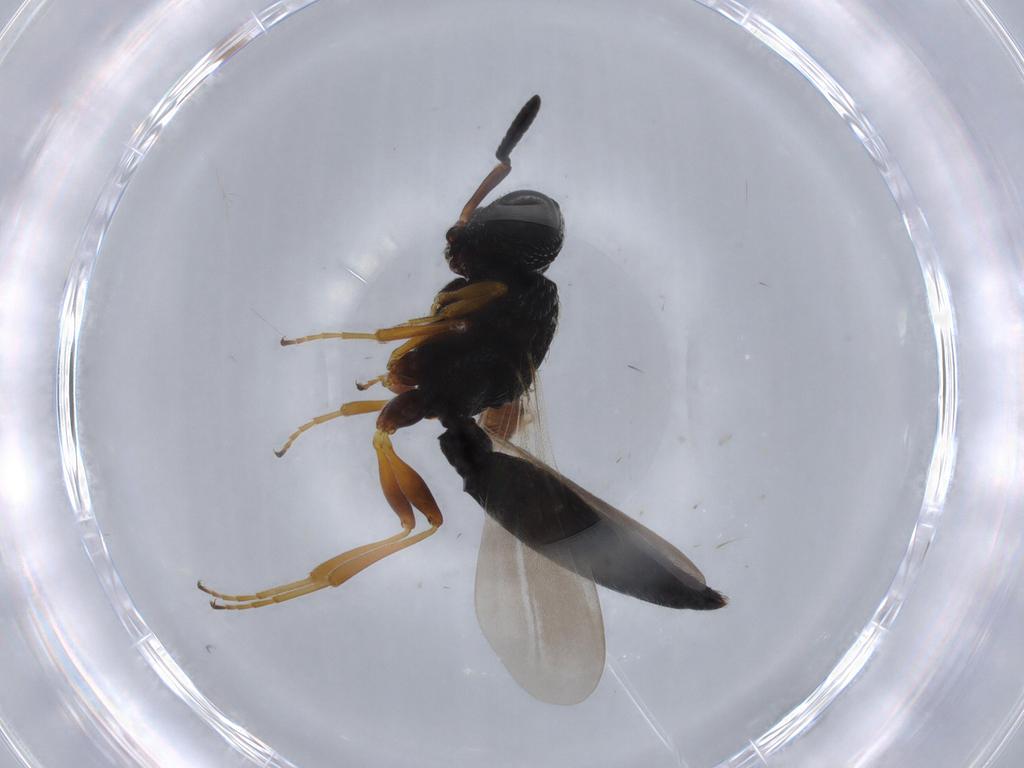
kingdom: Animalia
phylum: Arthropoda
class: Insecta
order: Hymenoptera
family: Scelionidae
